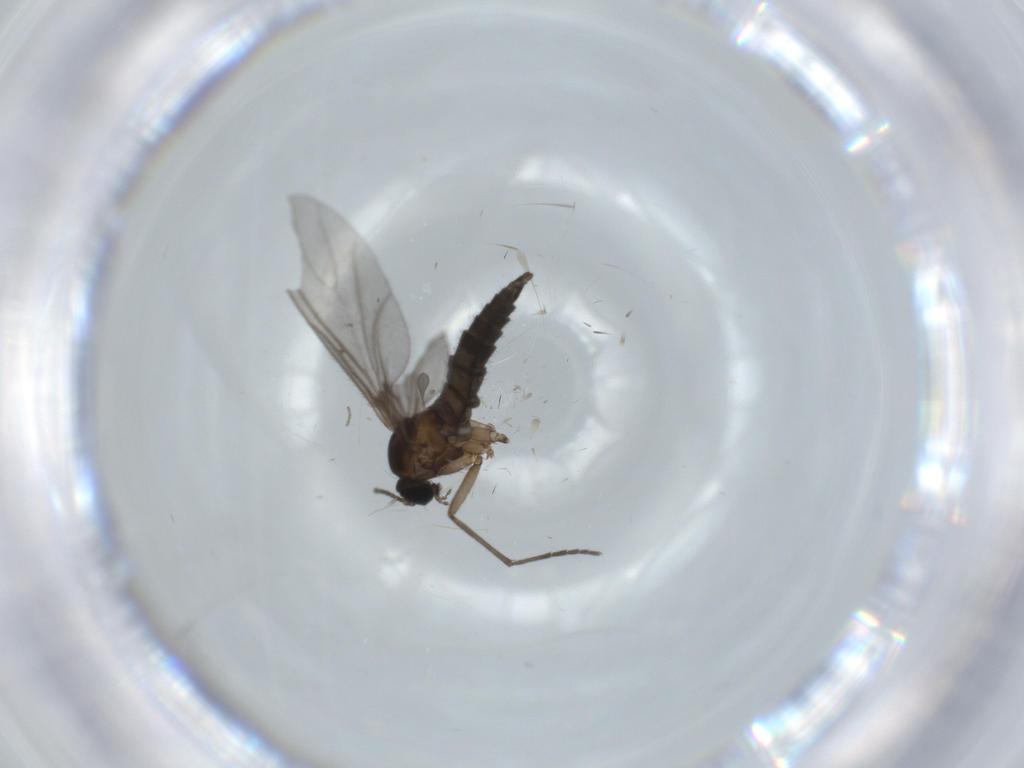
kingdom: Animalia
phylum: Arthropoda
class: Insecta
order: Diptera
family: Sciaridae
